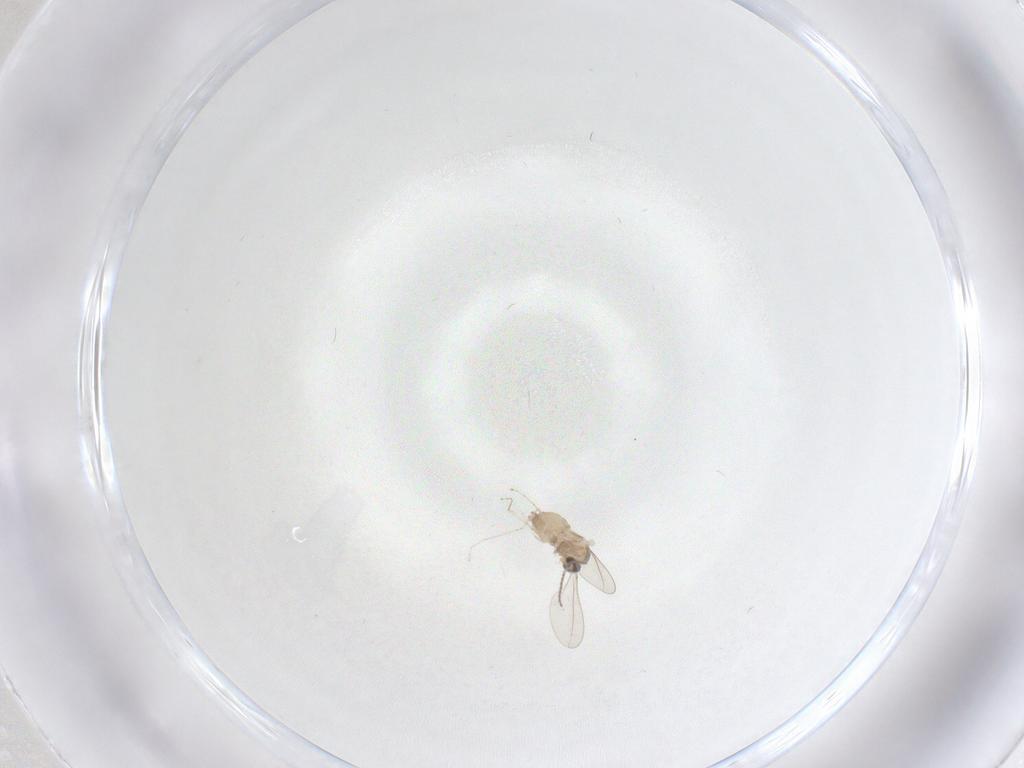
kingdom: Animalia
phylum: Arthropoda
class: Insecta
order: Diptera
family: Cecidomyiidae
